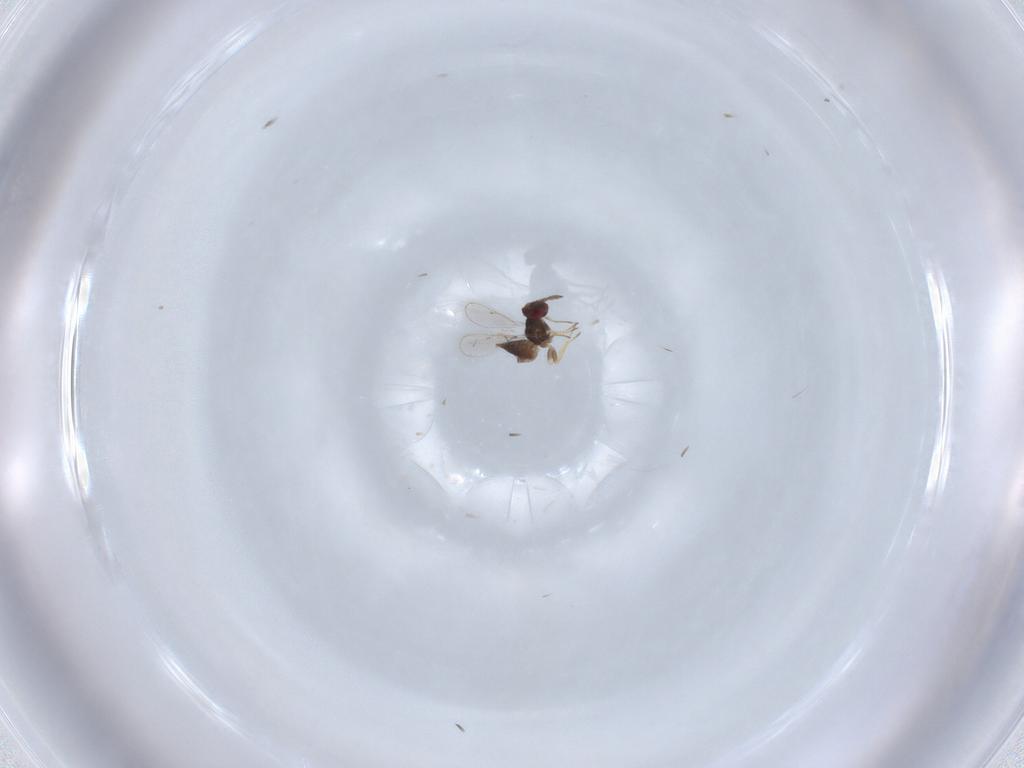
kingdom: Animalia
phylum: Arthropoda
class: Insecta
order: Hymenoptera
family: Eulophidae
